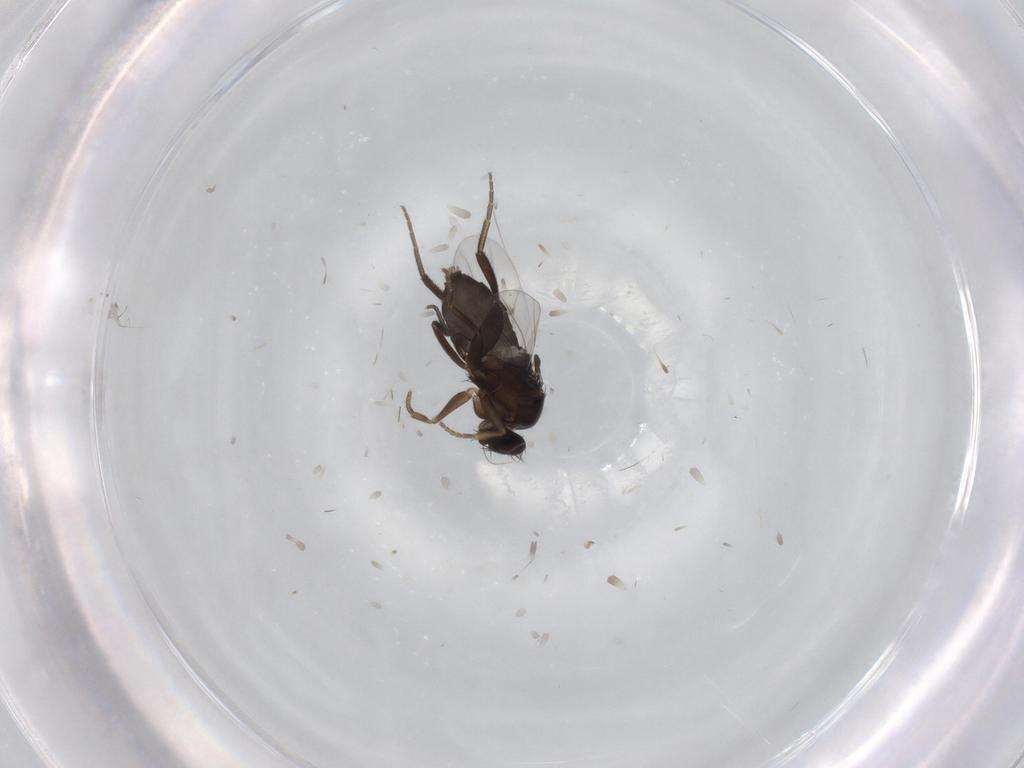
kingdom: Animalia
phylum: Arthropoda
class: Insecta
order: Diptera
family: Phoridae
